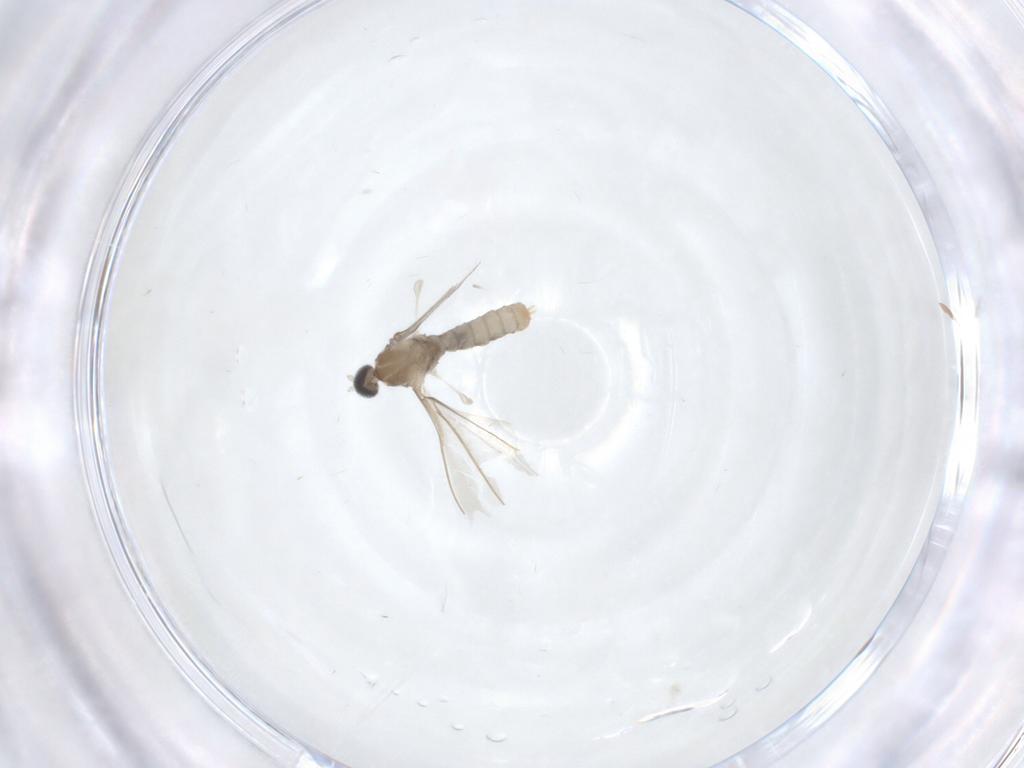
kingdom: Animalia
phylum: Arthropoda
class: Insecta
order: Diptera
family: Cecidomyiidae
